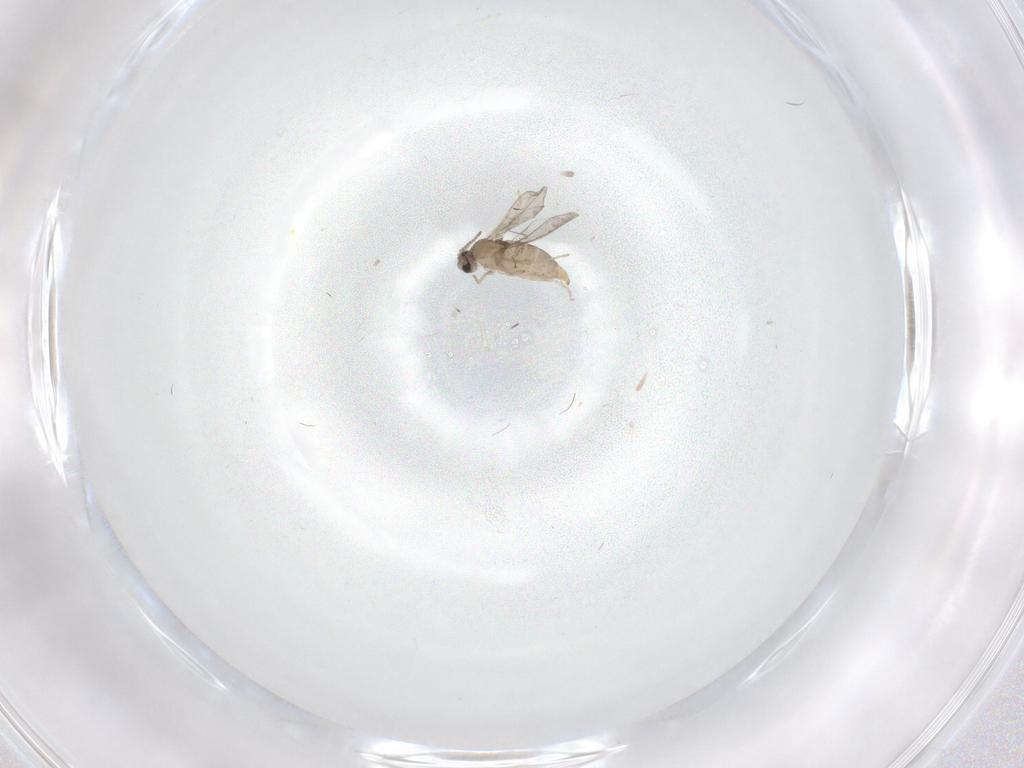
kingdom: Animalia
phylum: Arthropoda
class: Insecta
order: Diptera
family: Cecidomyiidae
